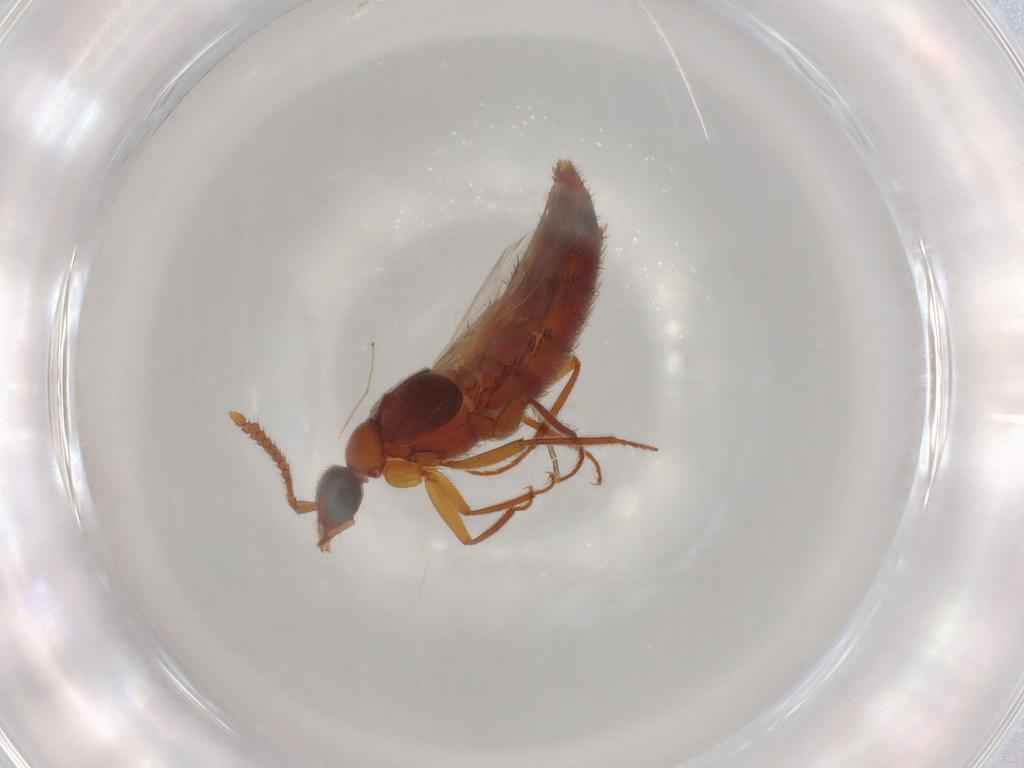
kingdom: Animalia
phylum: Arthropoda
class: Insecta
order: Coleoptera
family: Staphylinidae
